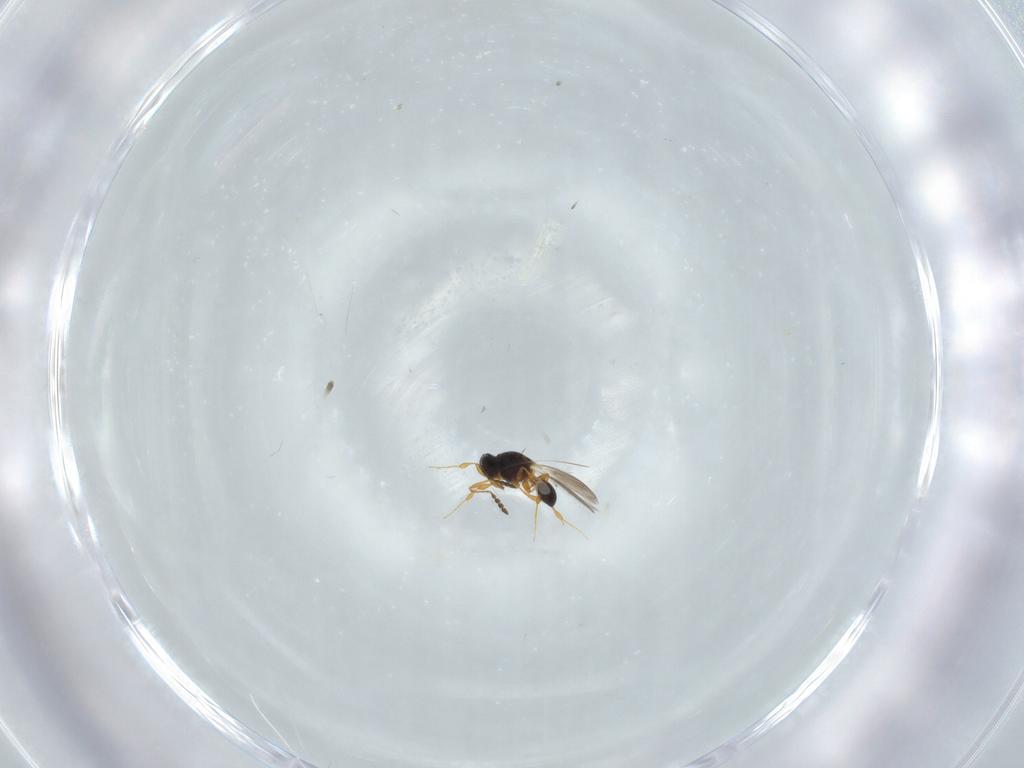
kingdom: Animalia
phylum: Arthropoda
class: Insecta
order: Hymenoptera
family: Platygastridae
